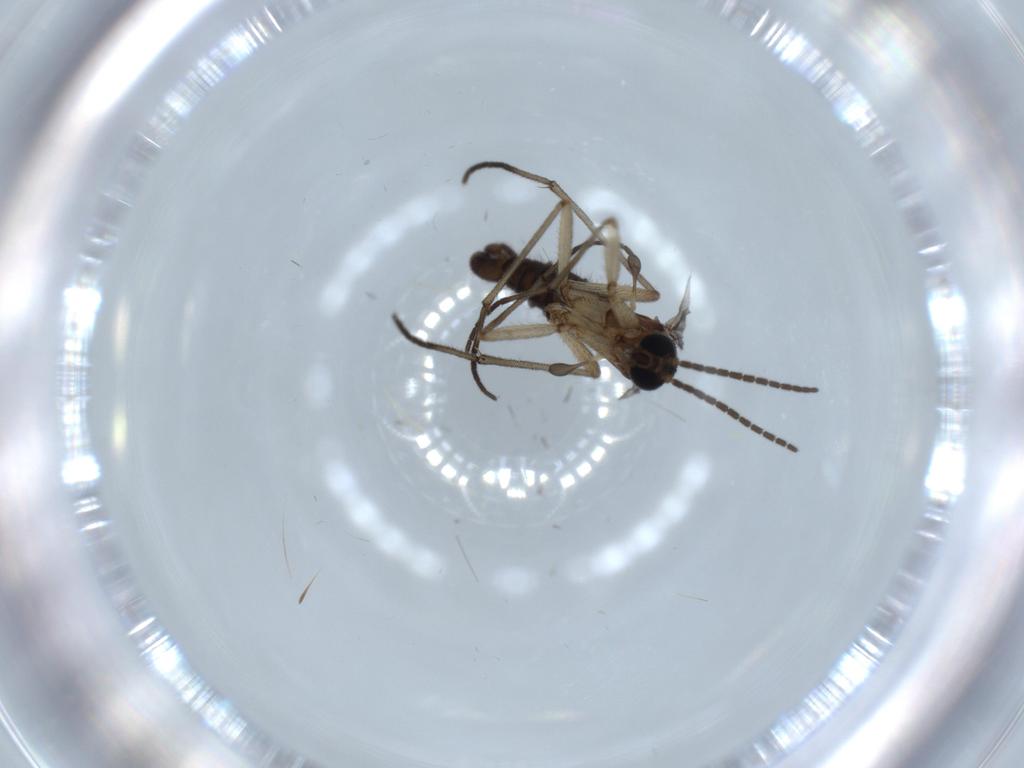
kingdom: Animalia
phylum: Arthropoda
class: Insecta
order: Diptera
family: Sciaridae
